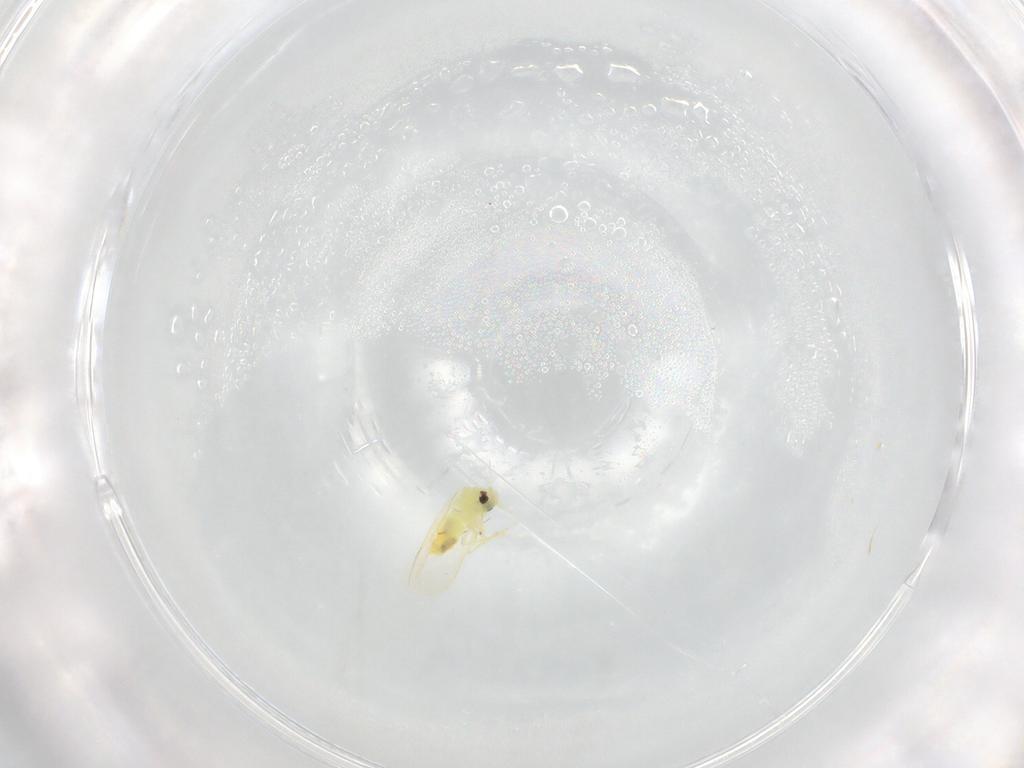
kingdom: Animalia
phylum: Arthropoda
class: Insecta
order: Hemiptera
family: Aleyrodidae
